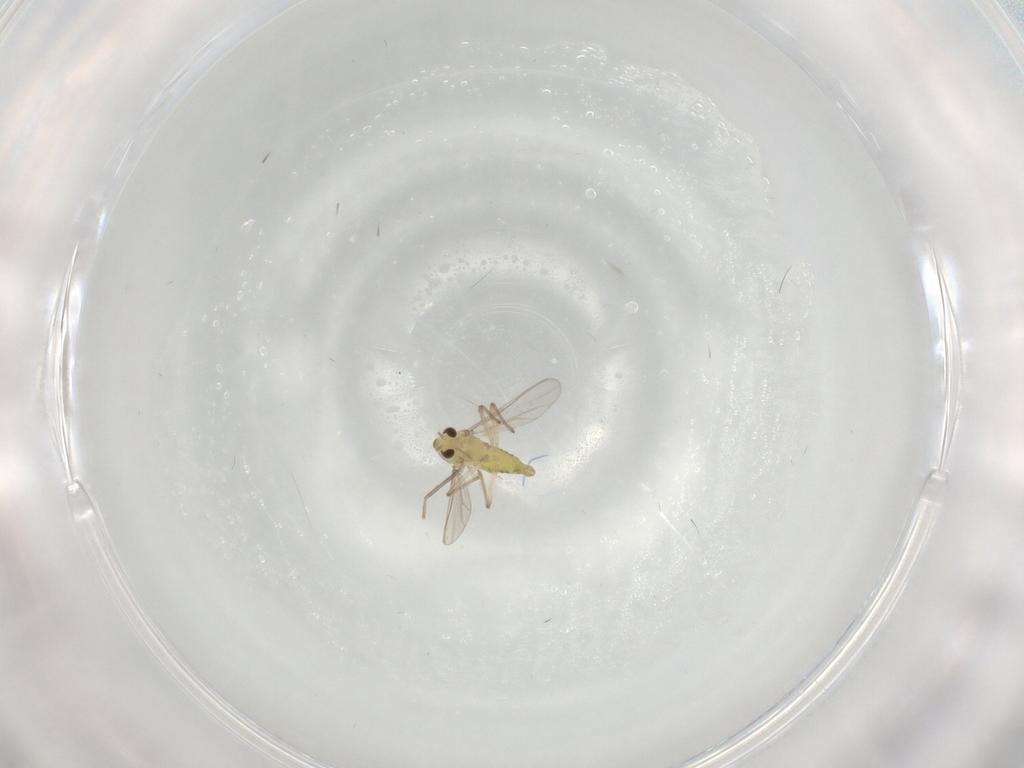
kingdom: Animalia
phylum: Arthropoda
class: Insecta
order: Diptera
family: Chironomidae
